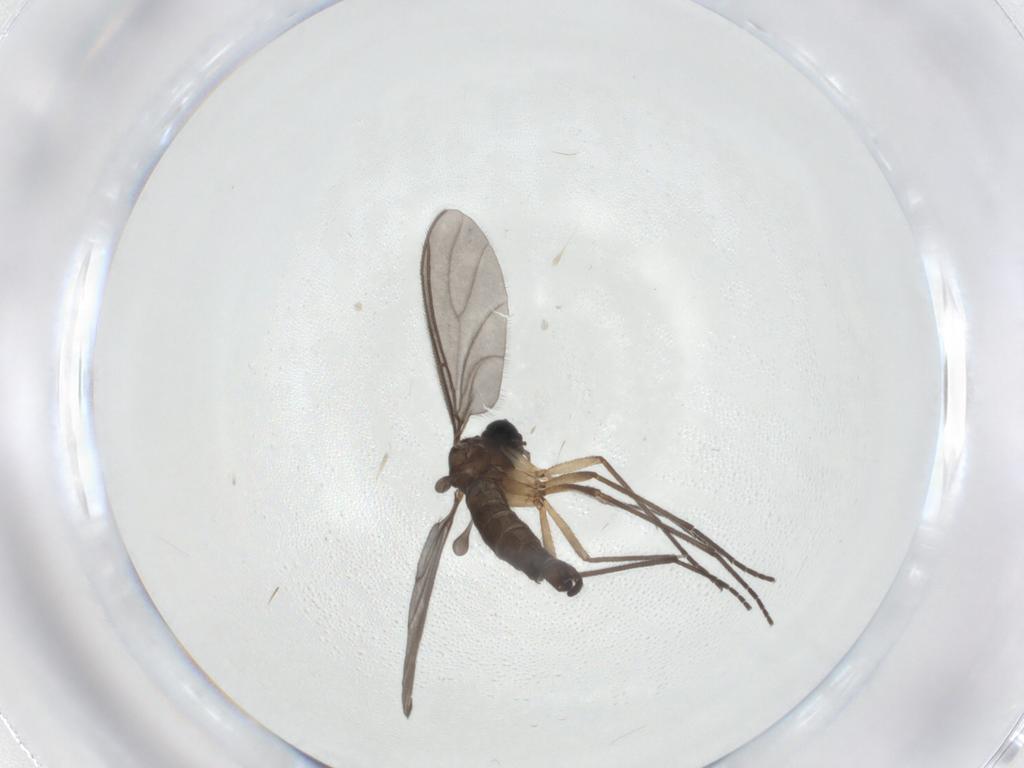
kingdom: Animalia
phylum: Arthropoda
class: Insecta
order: Diptera
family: Sciaridae
